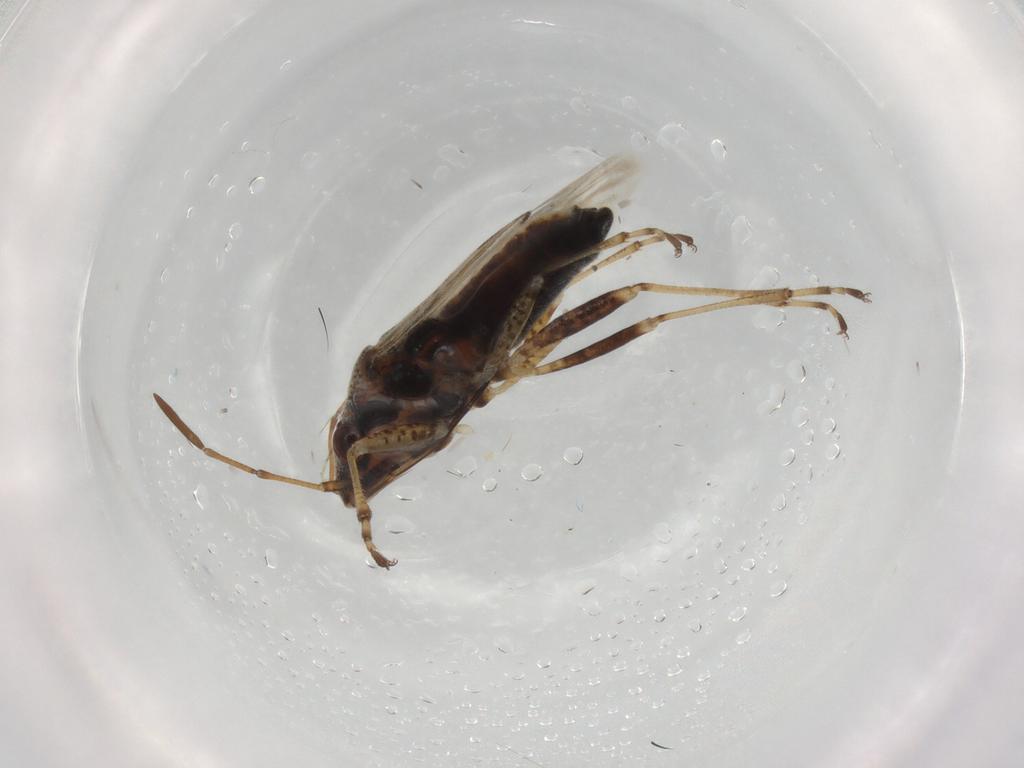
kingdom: Animalia
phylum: Arthropoda
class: Insecta
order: Hemiptera
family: Lygaeidae
